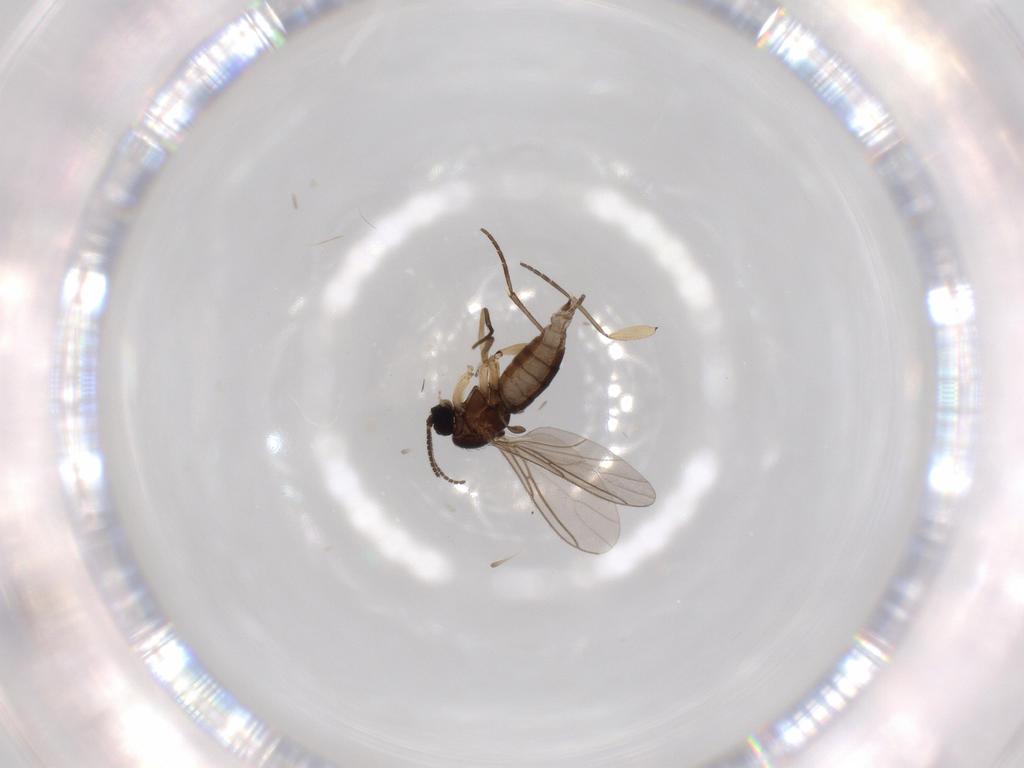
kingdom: Animalia
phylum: Arthropoda
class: Insecta
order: Diptera
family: Sciaridae
